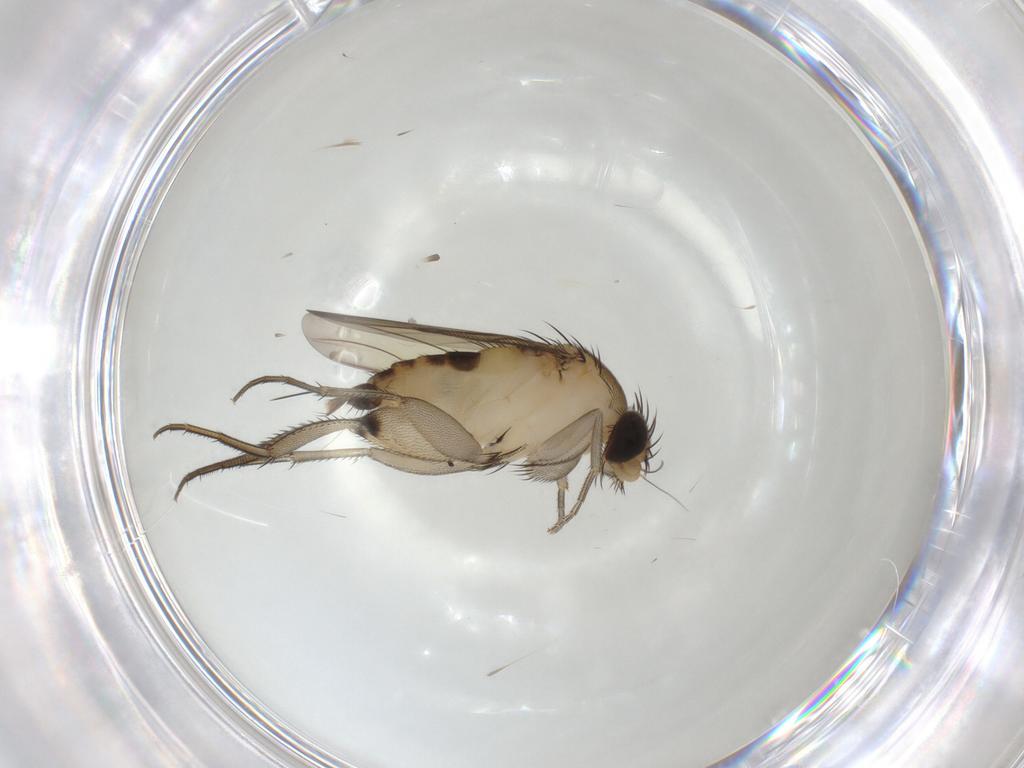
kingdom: Animalia
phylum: Arthropoda
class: Insecta
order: Diptera
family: Phoridae
